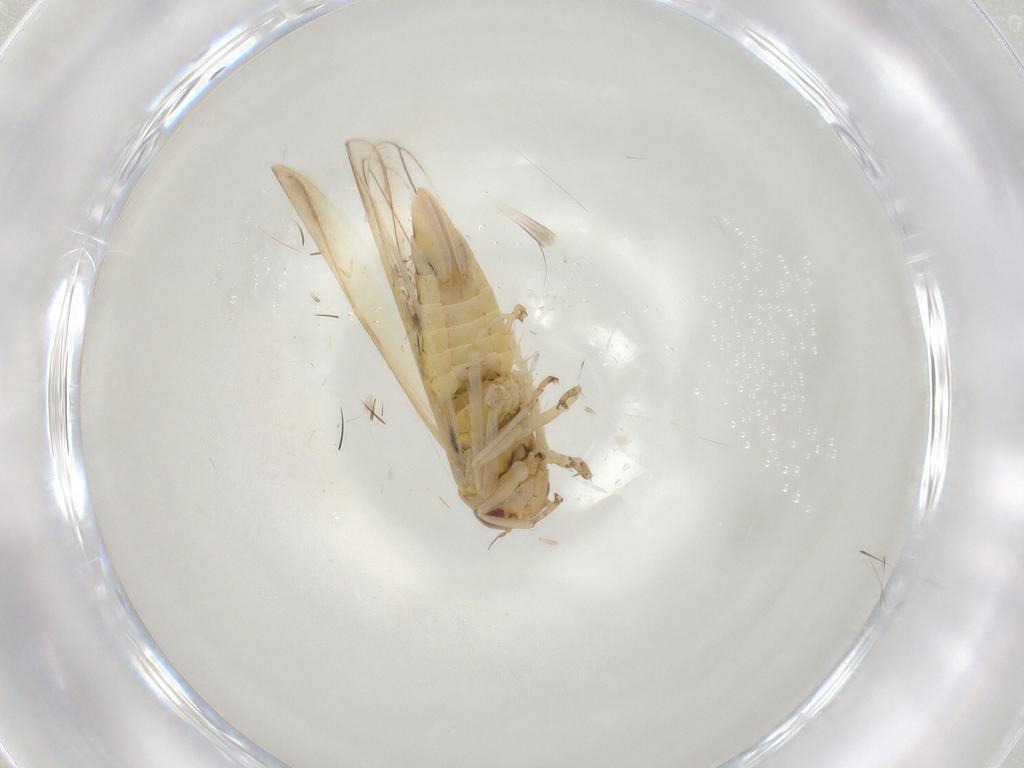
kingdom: Animalia
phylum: Arthropoda
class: Insecta
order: Hemiptera
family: Cicadellidae
